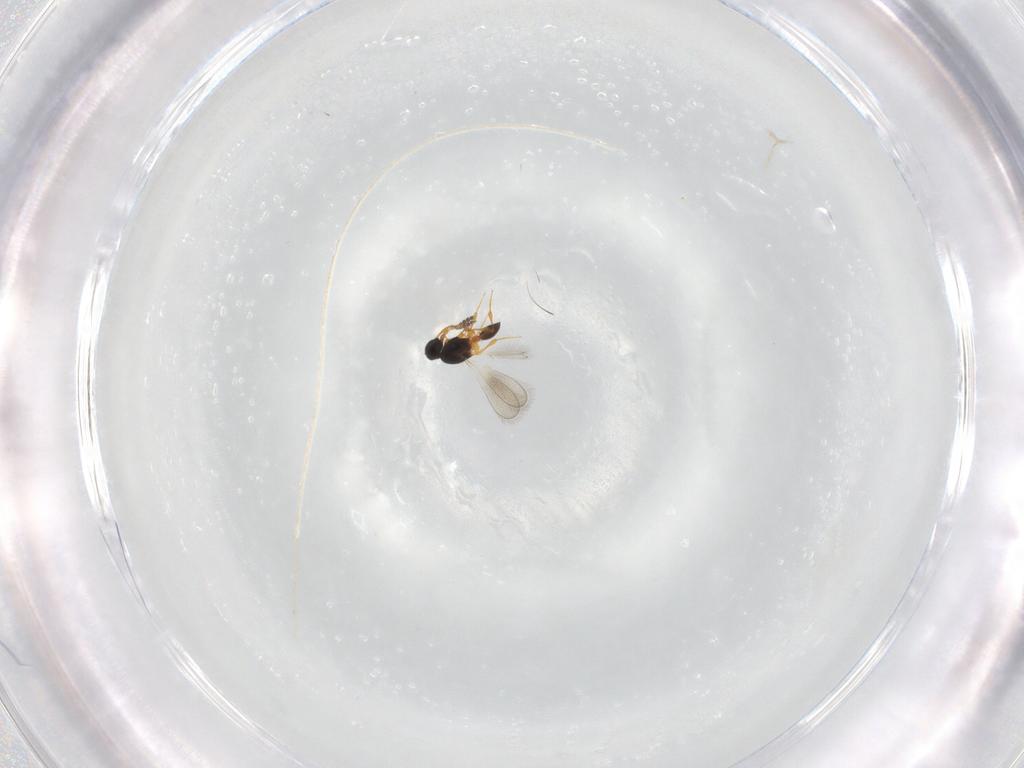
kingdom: Animalia
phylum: Arthropoda
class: Insecta
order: Hymenoptera
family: Platygastridae
